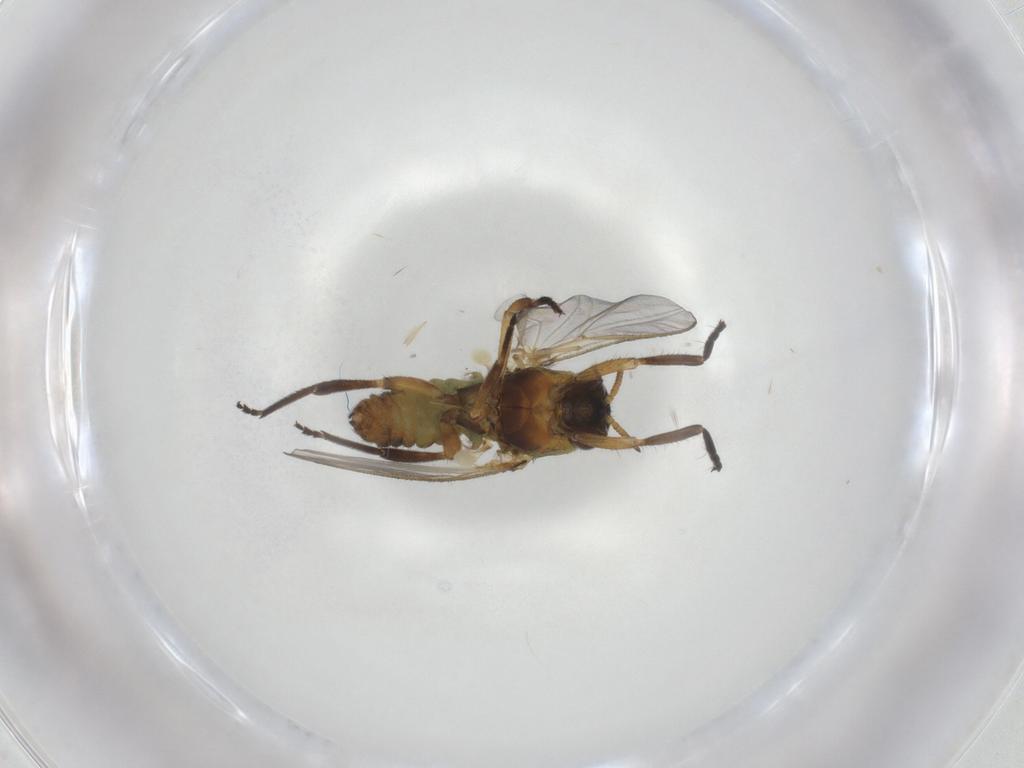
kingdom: Animalia
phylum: Arthropoda
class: Insecta
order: Diptera
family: Simuliidae
